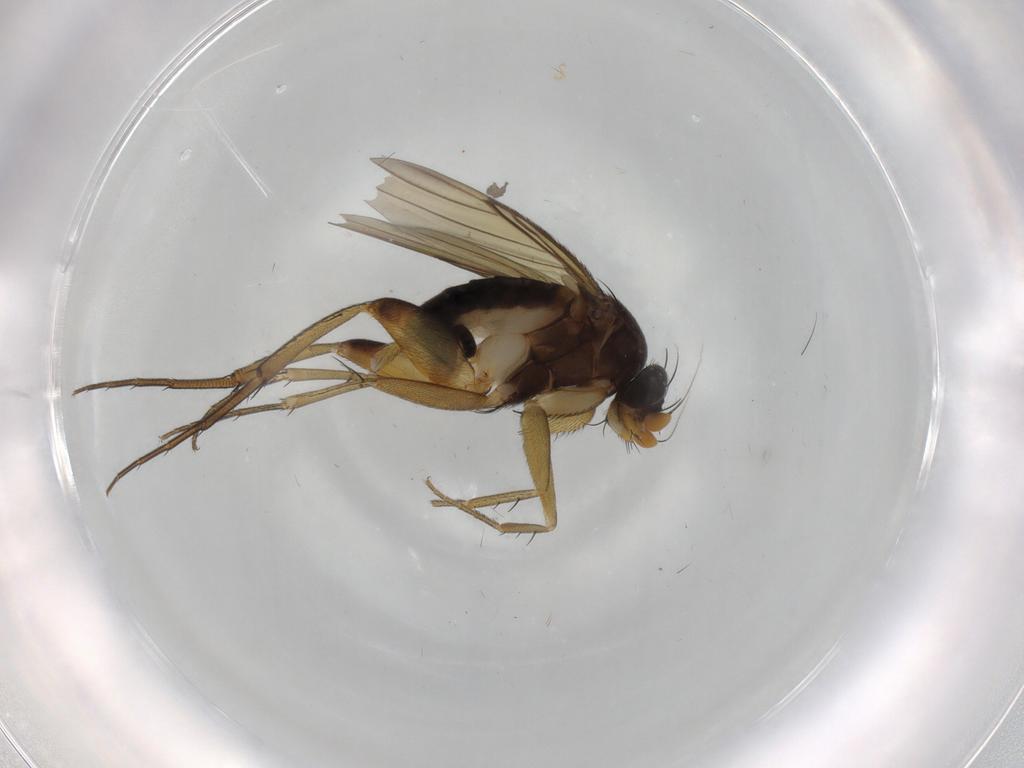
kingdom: Animalia
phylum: Arthropoda
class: Insecta
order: Diptera
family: Phoridae
